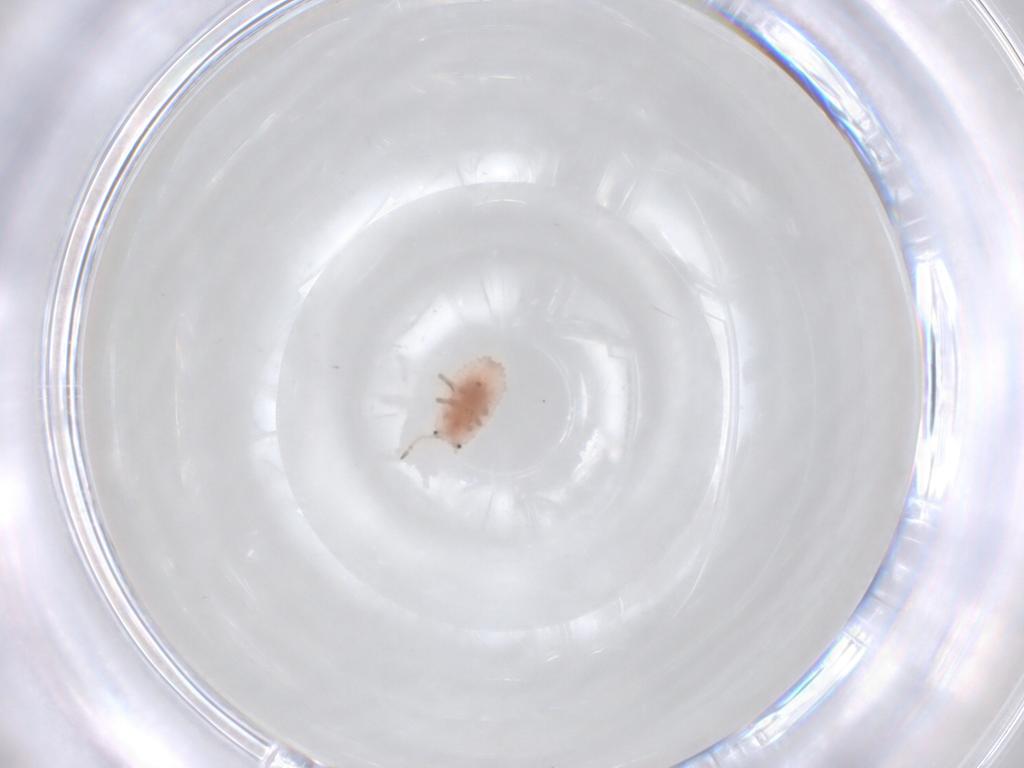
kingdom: Animalia
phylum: Arthropoda
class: Insecta
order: Hemiptera
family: Coccoidea_incertae_sedis
